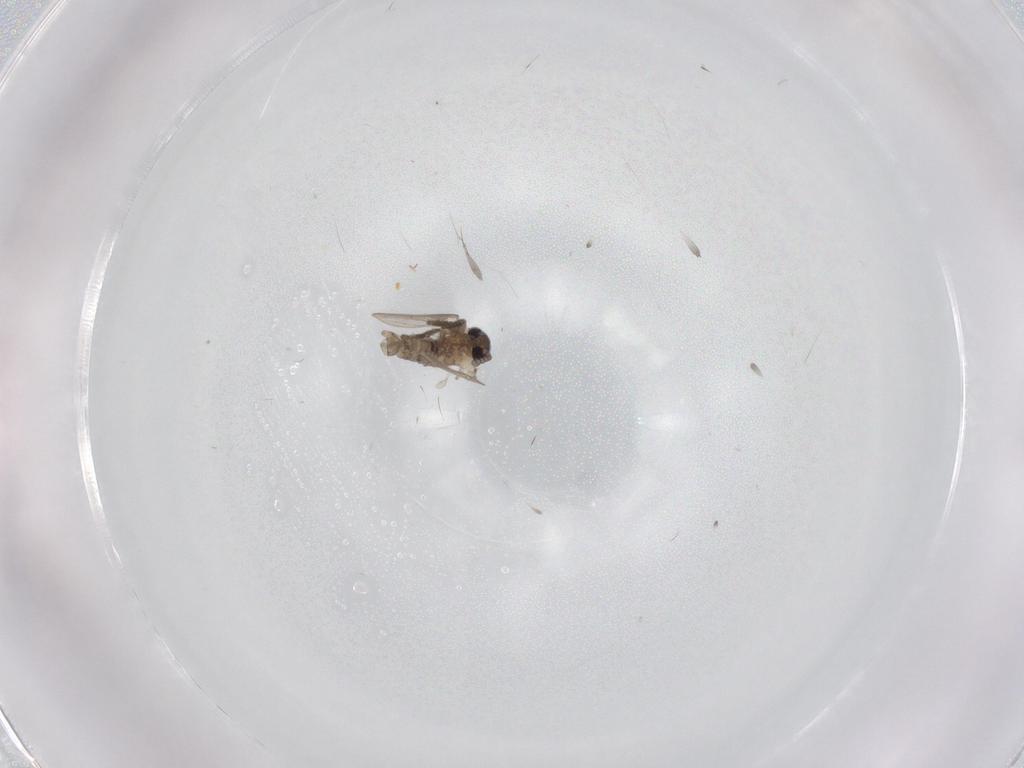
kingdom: Animalia
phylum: Arthropoda
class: Insecta
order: Diptera
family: Psychodidae
